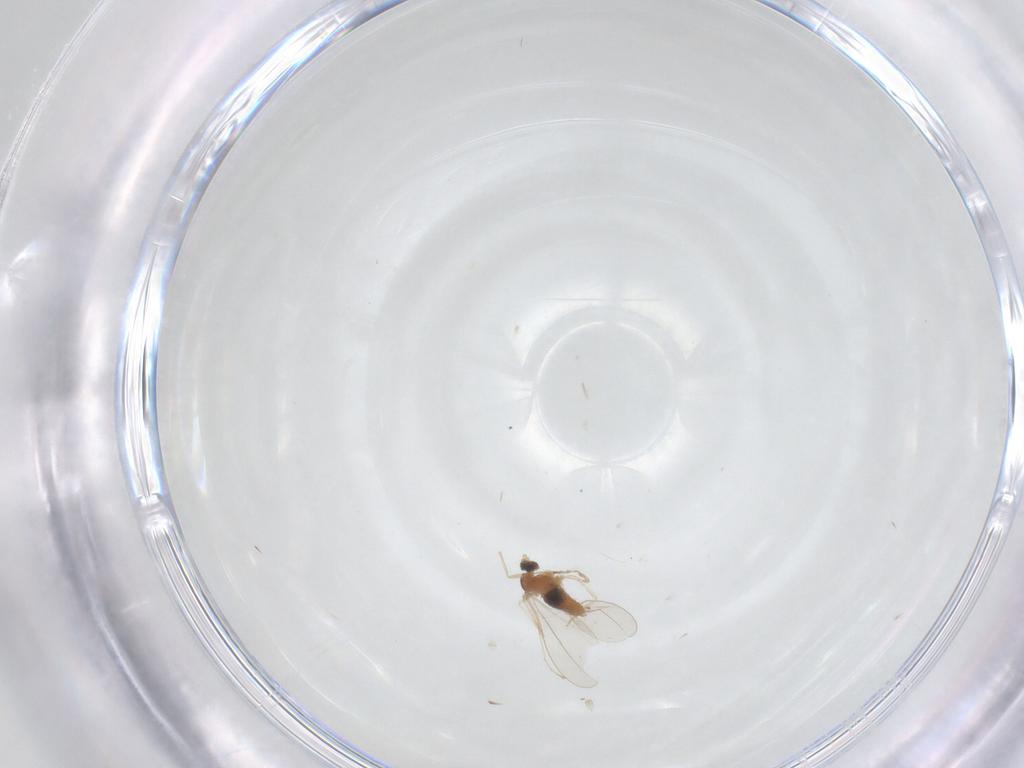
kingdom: Animalia
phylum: Arthropoda
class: Insecta
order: Diptera
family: Cecidomyiidae
